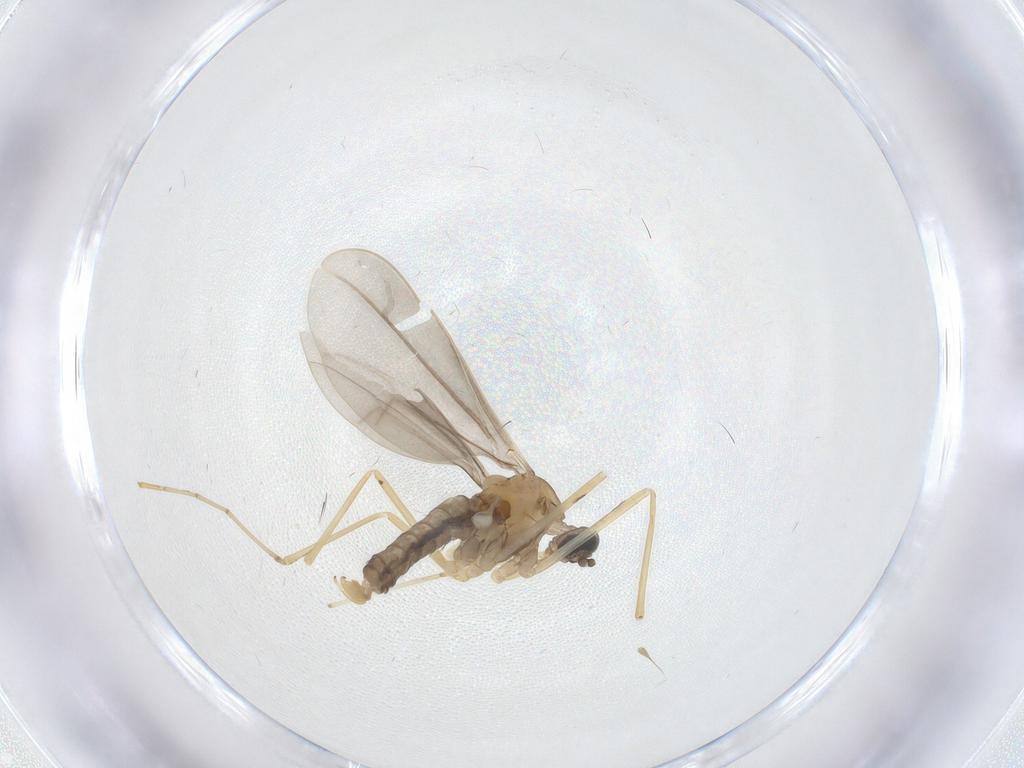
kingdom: Animalia
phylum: Arthropoda
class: Insecta
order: Diptera
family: Cecidomyiidae
